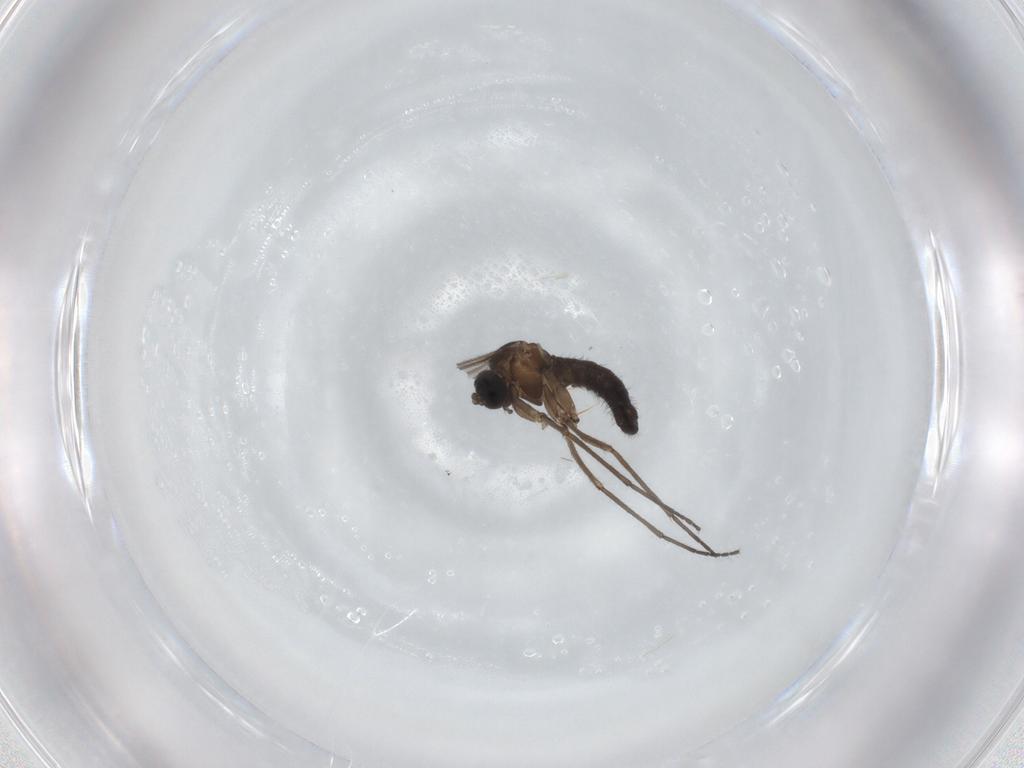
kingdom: Animalia
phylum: Arthropoda
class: Insecta
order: Diptera
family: Sciaridae
